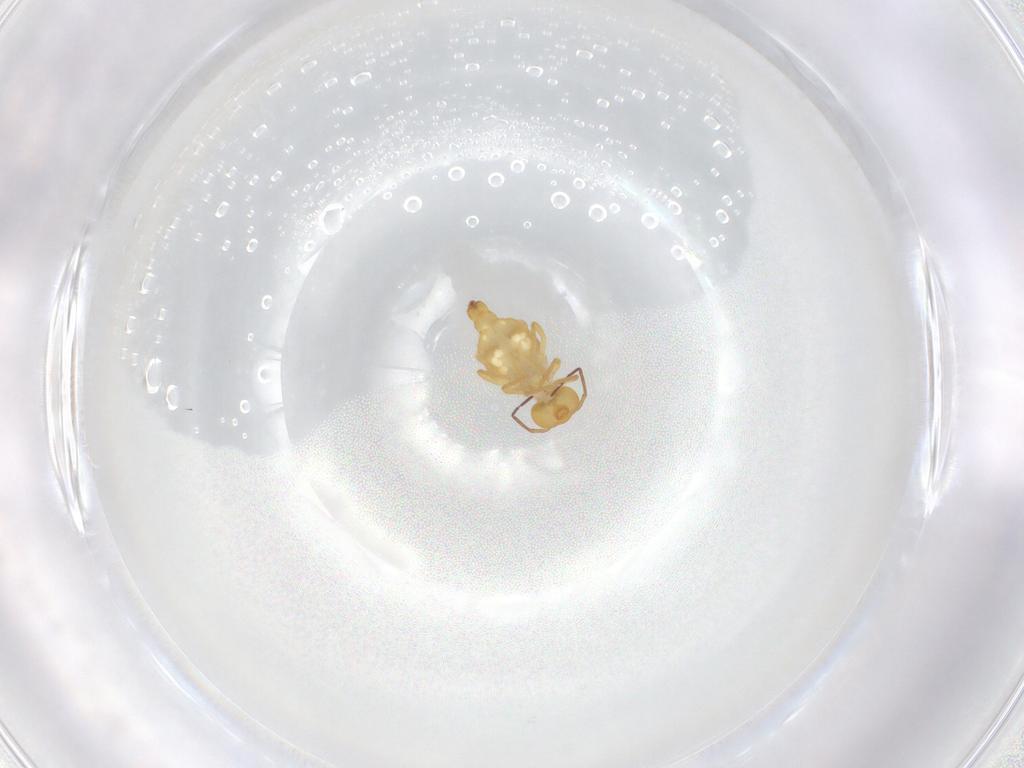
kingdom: Animalia
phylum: Arthropoda
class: Collembola
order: Symphypleona
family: Bourletiellidae
